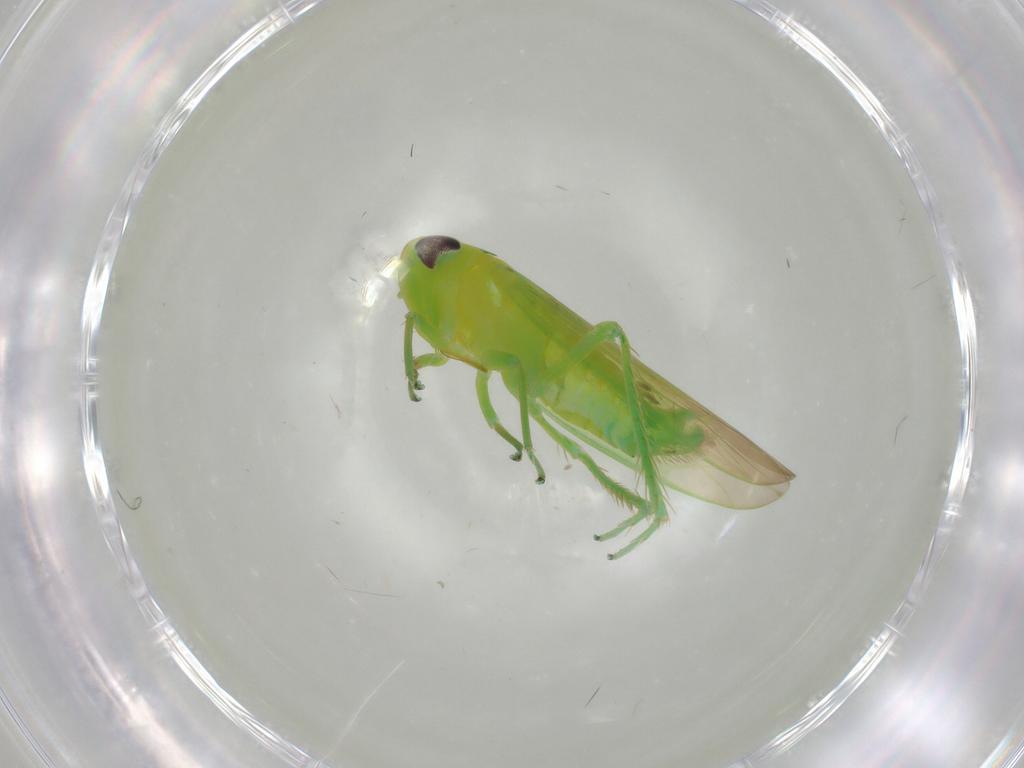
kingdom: Animalia
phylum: Arthropoda
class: Insecta
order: Hemiptera
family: Cicadellidae
